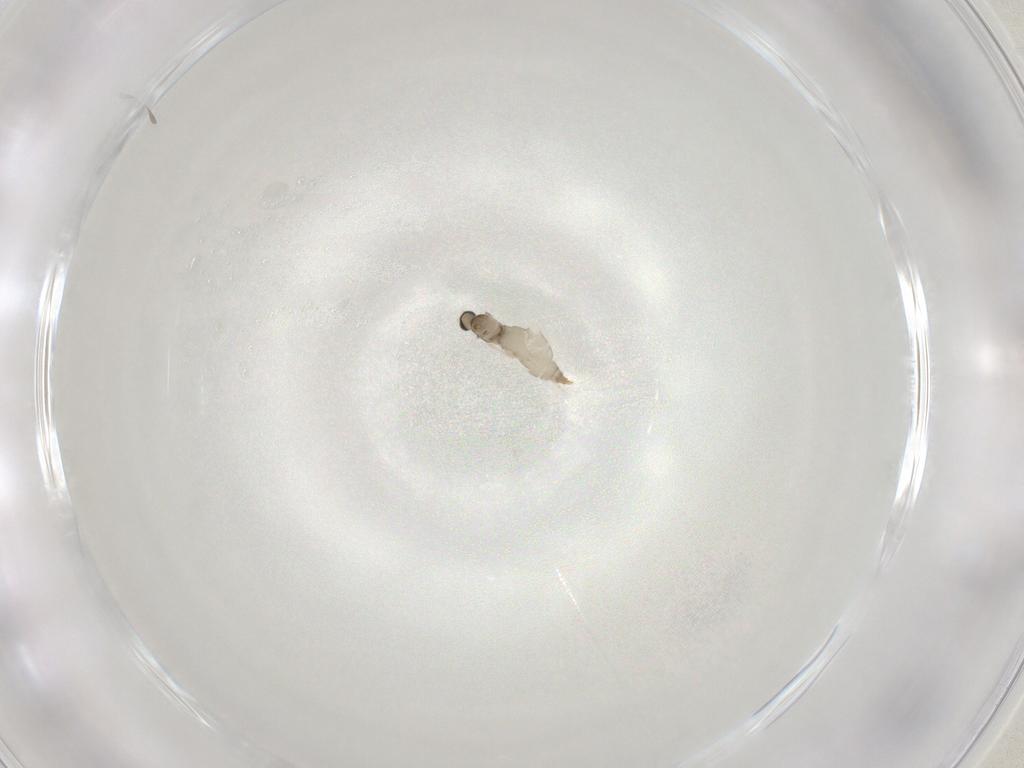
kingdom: Animalia
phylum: Arthropoda
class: Insecta
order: Diptera
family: Cecidomyiidae
